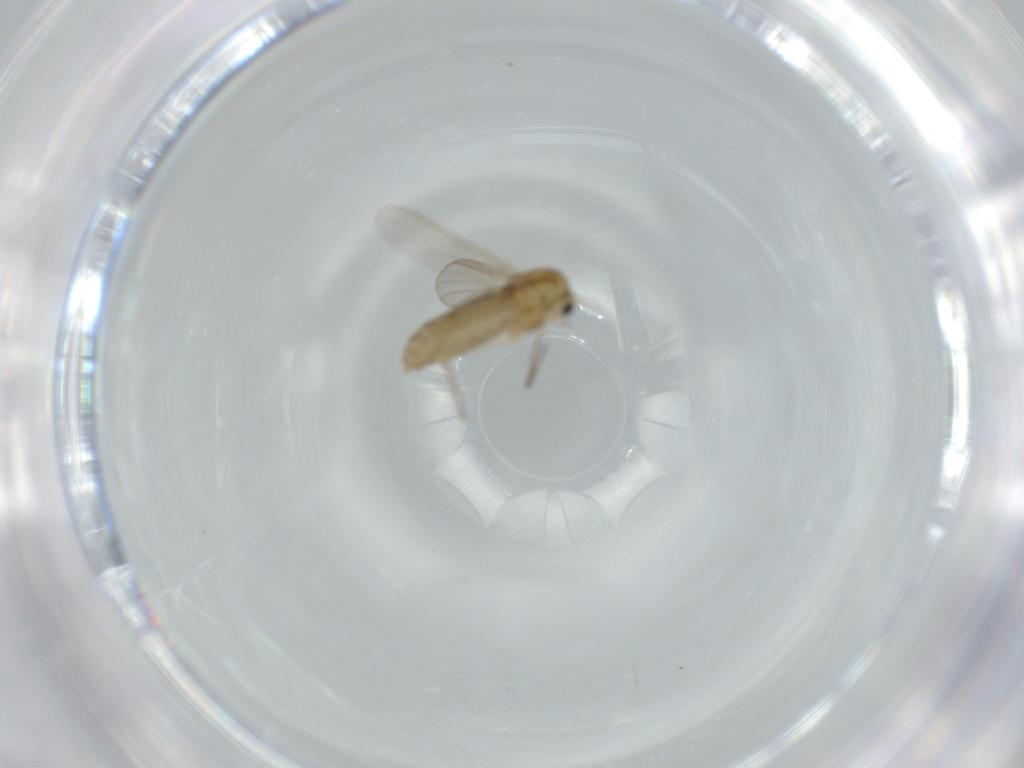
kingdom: Animalia
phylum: Arthropoda
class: Insecta
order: Diptera
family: Chironomidae
